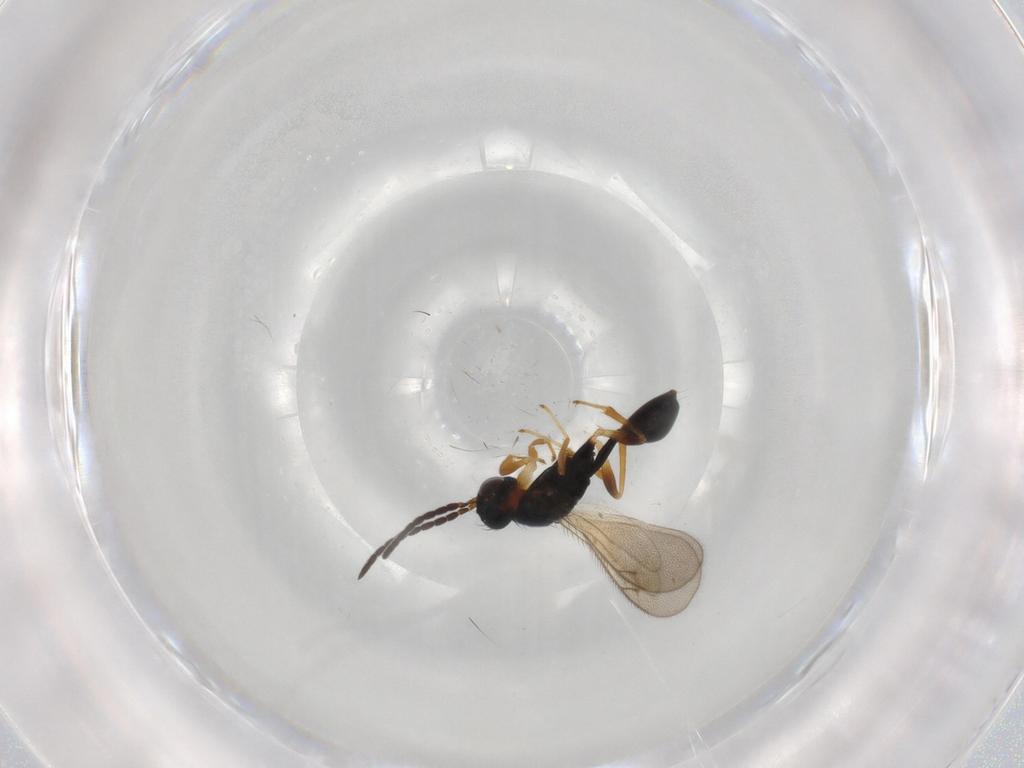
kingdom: Animalia
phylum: Arthropoda
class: Insecta
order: Hymenoptera
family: Diparidae
